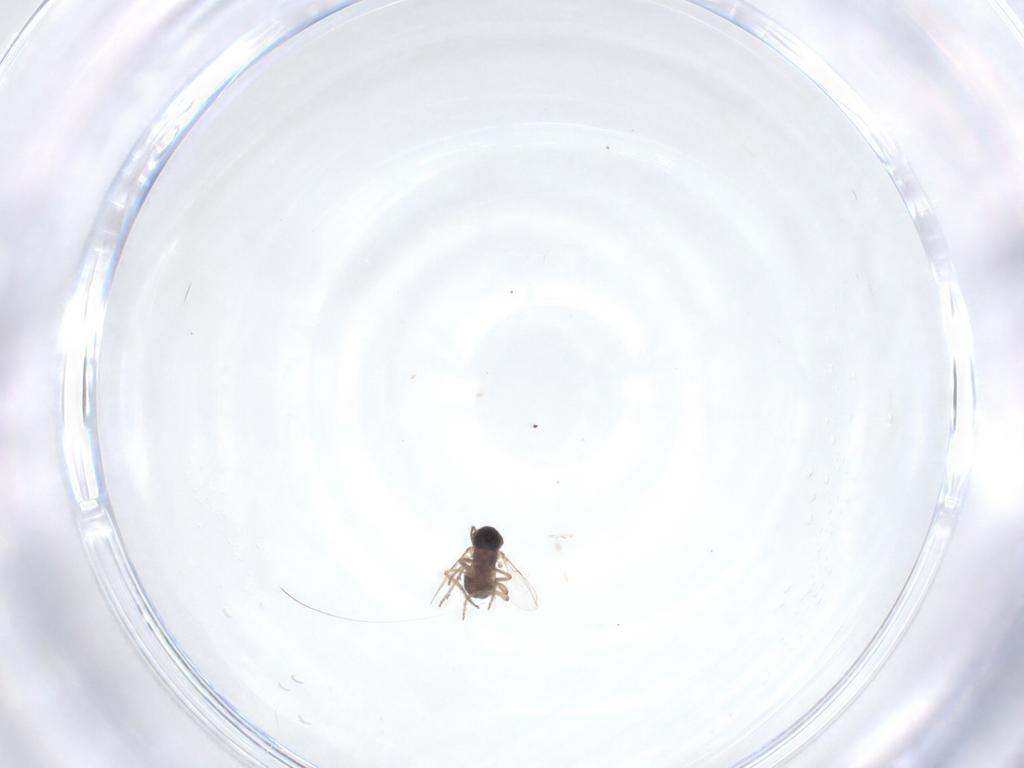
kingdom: Animalia
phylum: Arthropoda
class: Insecta
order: Diptera
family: Ceratopogonidae
